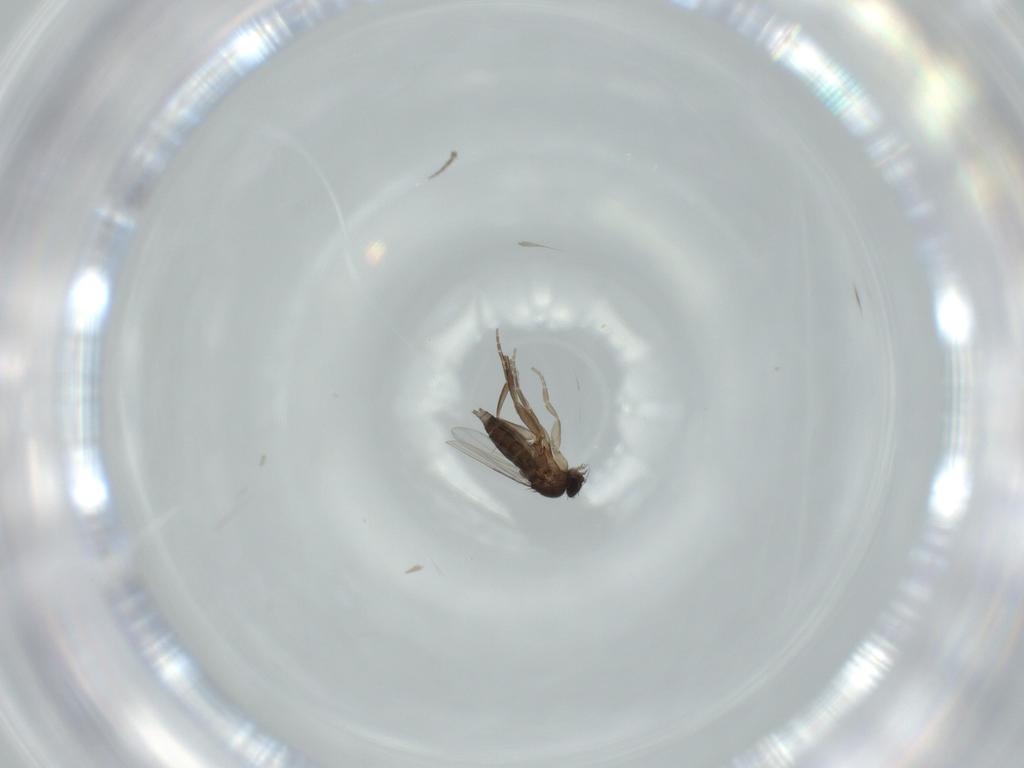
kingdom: Animalia
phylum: Arthropoda
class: Insecta
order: Diptera
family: Phoridae
